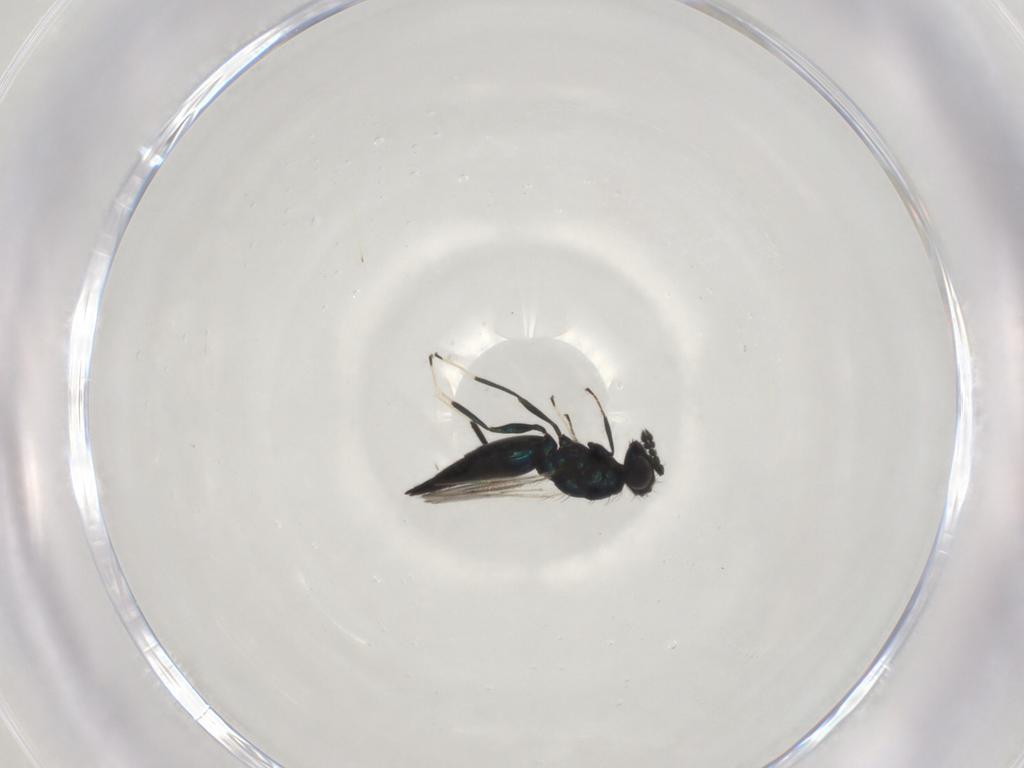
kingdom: Animalia
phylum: Arthropoda
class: Insecta
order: Hymenoptera
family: Eulophidae
